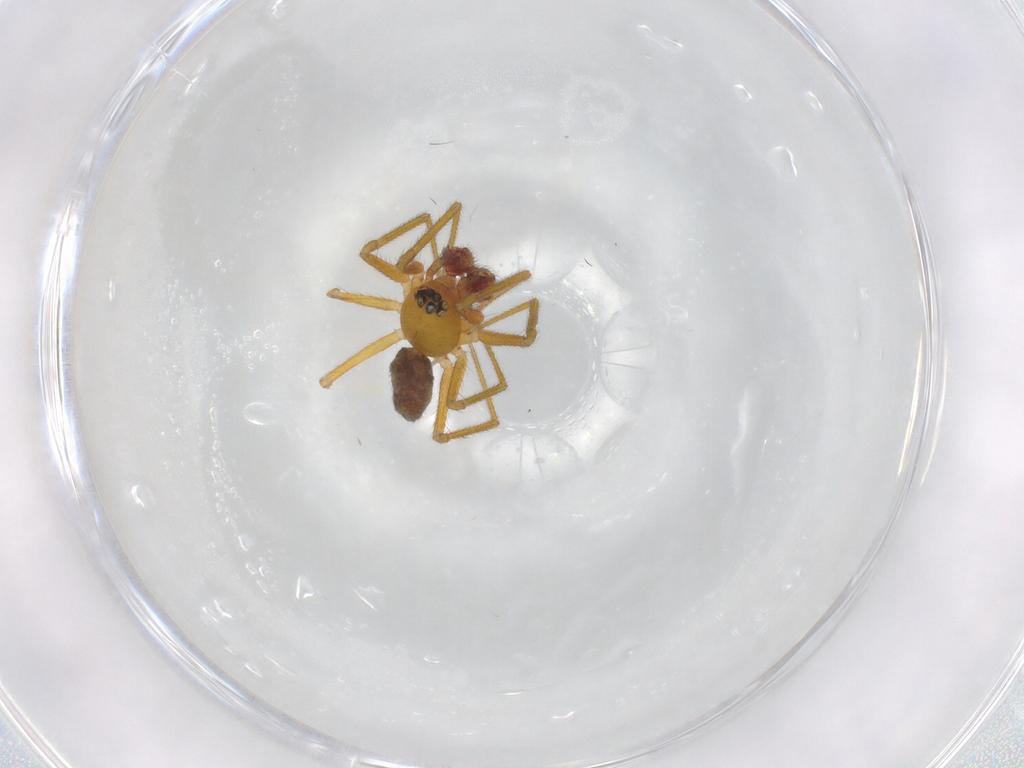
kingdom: Animalia
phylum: Arthropoda
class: Arachnida
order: Araneae
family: Linyphiidae
